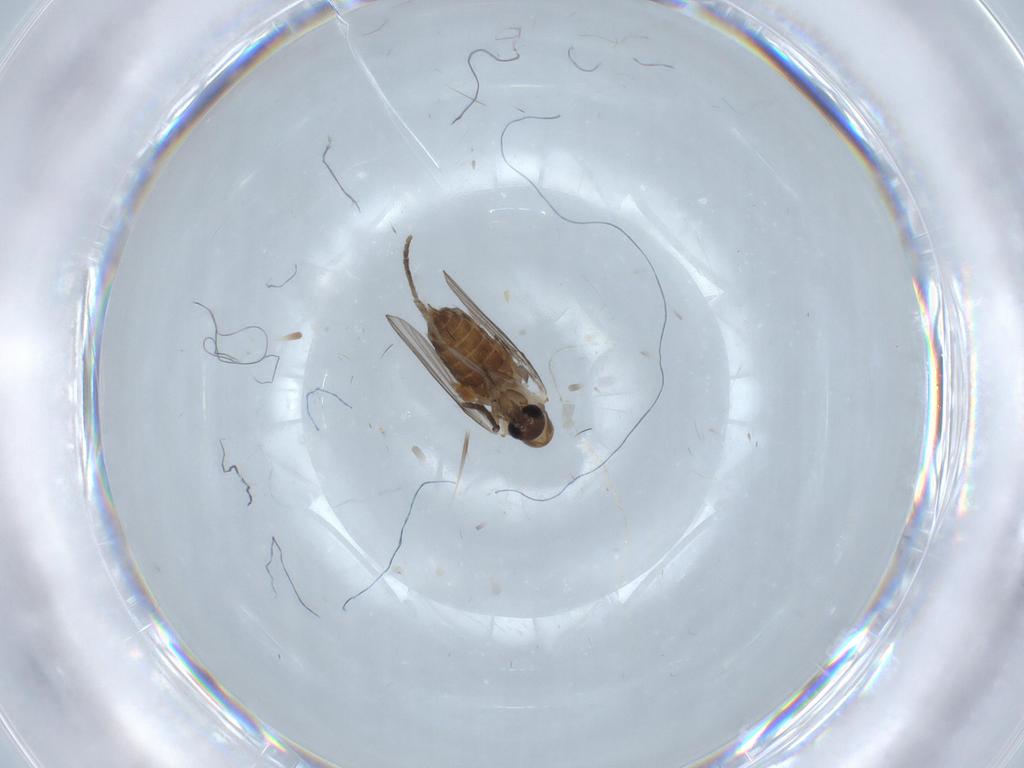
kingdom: Animalia
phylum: Arthropoda
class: Insecta
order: Diptera
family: Psychodidae
